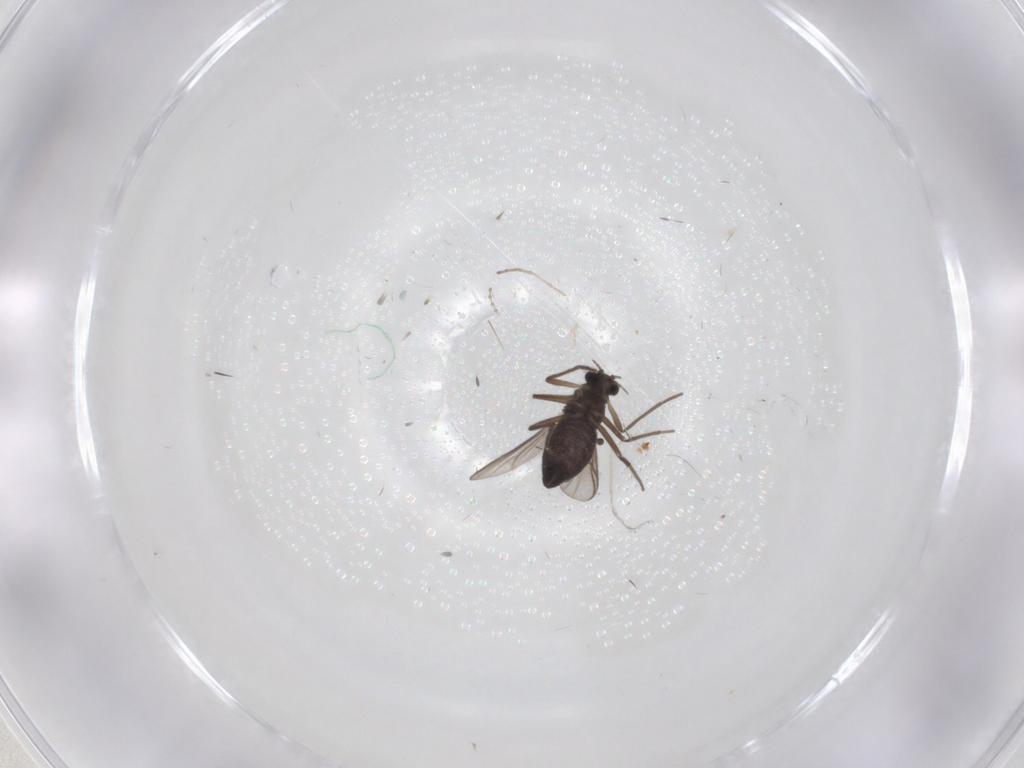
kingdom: Animalia
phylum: Arthropoda
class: Insecta
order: Diptera
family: Chironomidae
